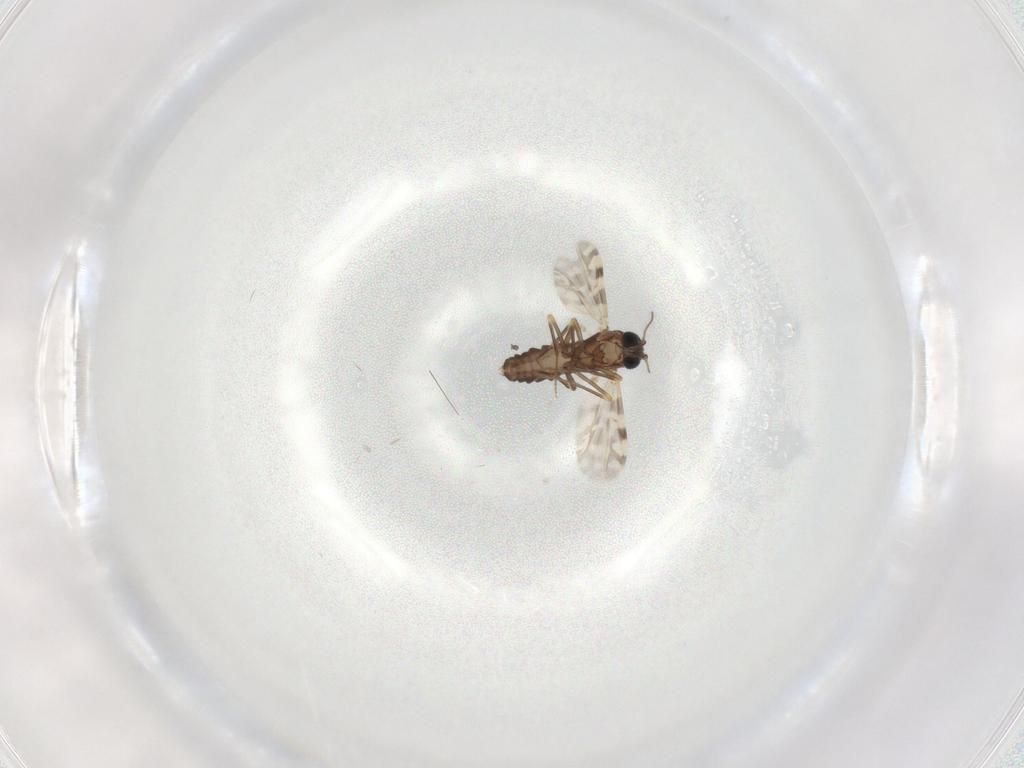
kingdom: Animalia
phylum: Arthropoda
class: Insecta
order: Diptera
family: Ceratopogonidae
